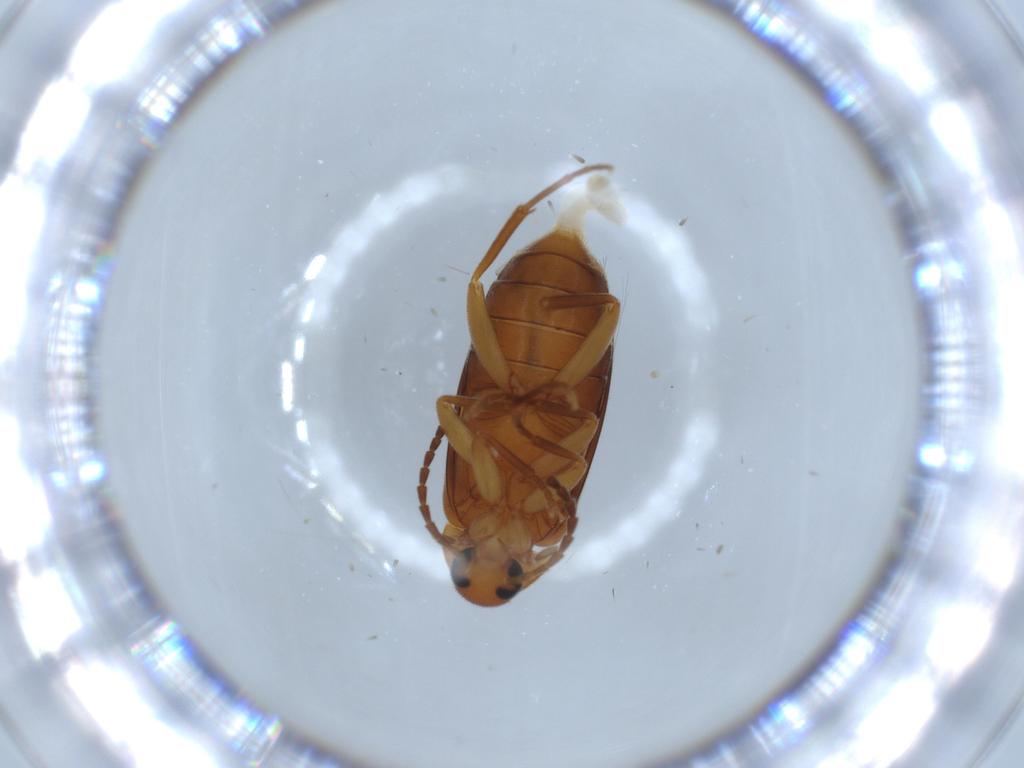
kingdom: Animalia
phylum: Arthropoda
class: Insecta
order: Coleoptera
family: Scraptiidae
